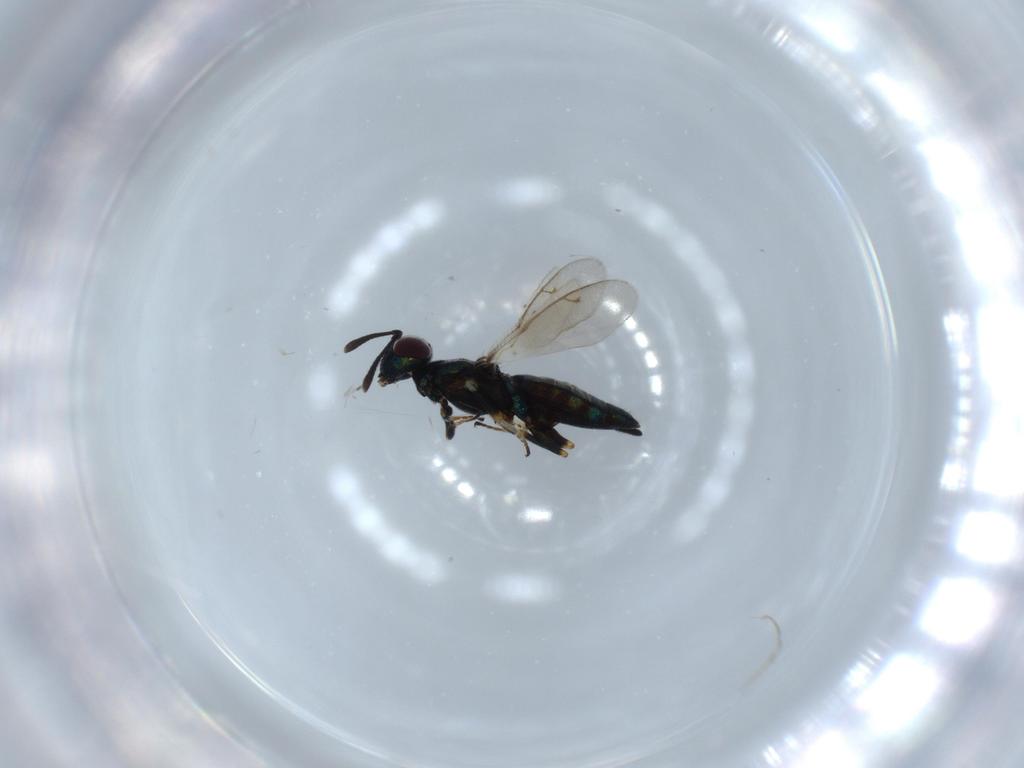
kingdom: Animalia
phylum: Arthropoda
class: Insecta
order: Hymenoptera
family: Eupelmidae
